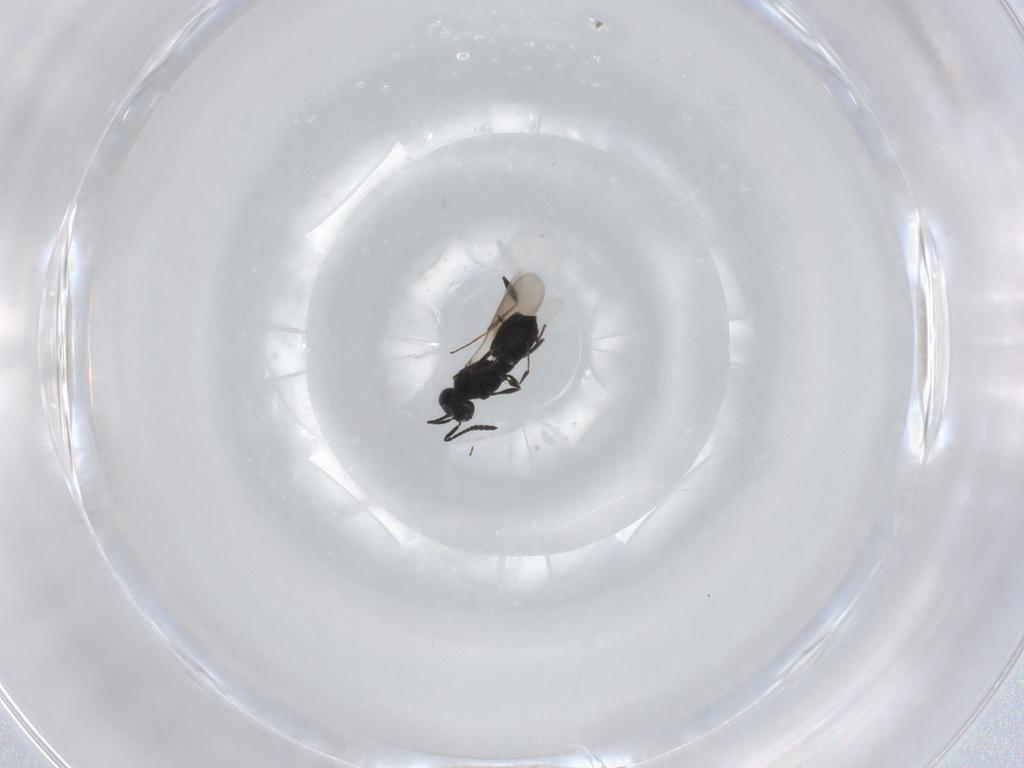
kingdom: Animalia
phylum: Arthropoda
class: Insecta
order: Hymenoptera
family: Scelionidae
